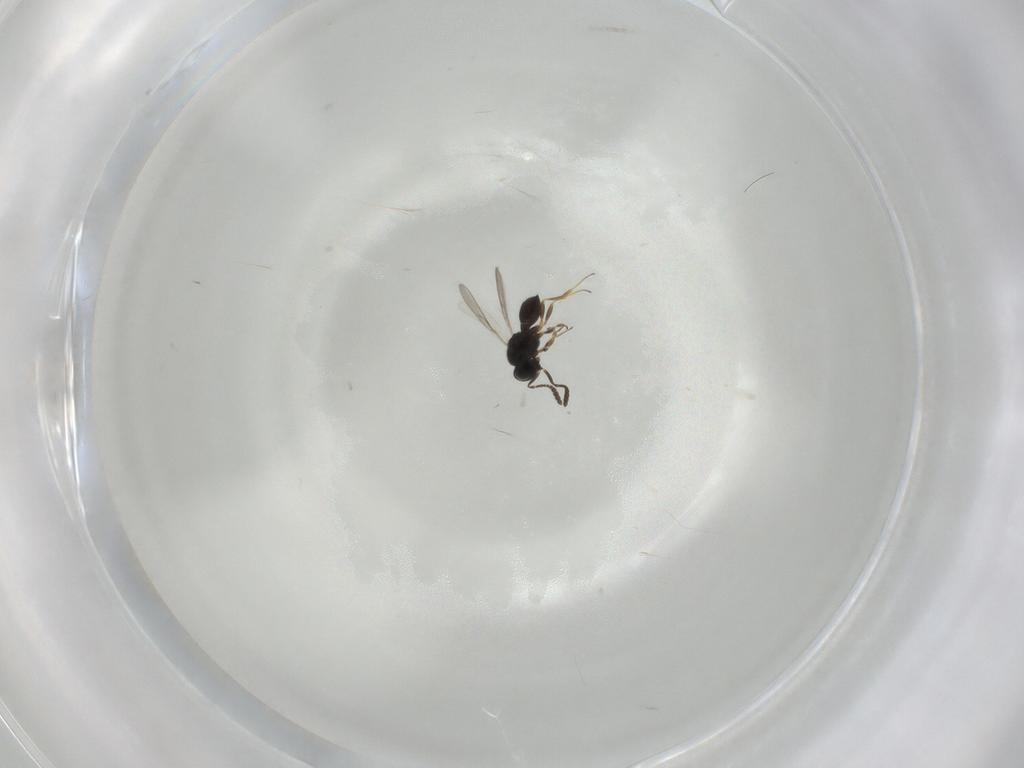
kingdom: Animalia
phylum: Arthropoda
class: Insecta
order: Hymenoptera
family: Scelionidae
